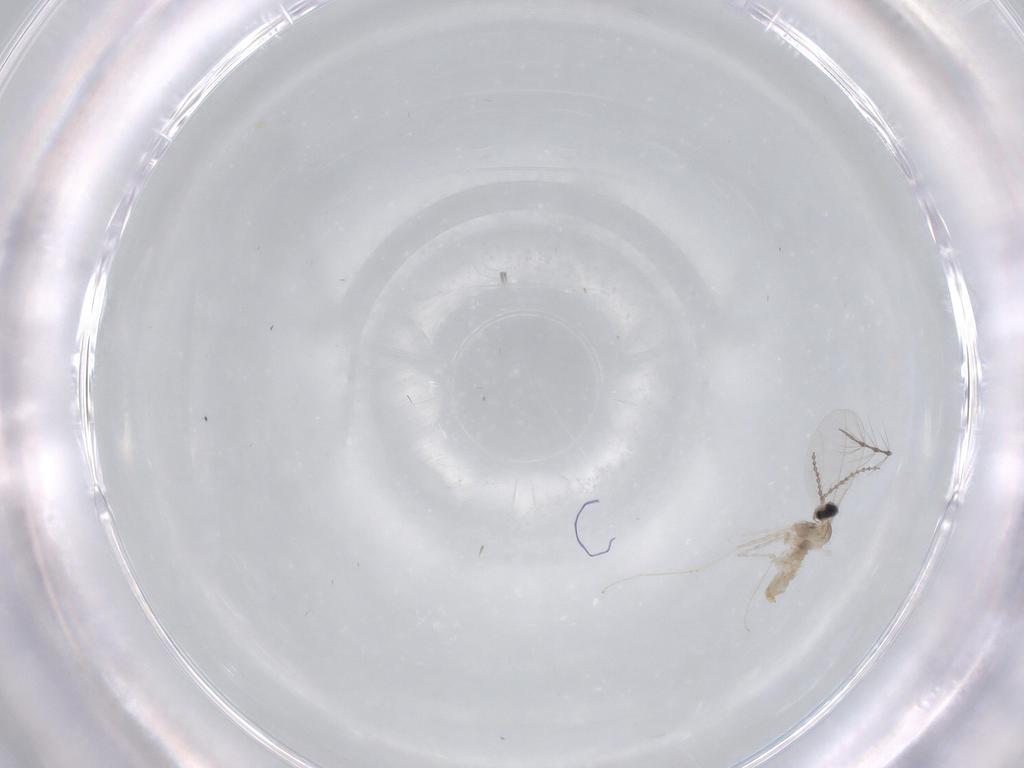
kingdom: Animalia
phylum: Arthropoda
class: Insecta
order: Diptera
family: Cecidomyiidae
